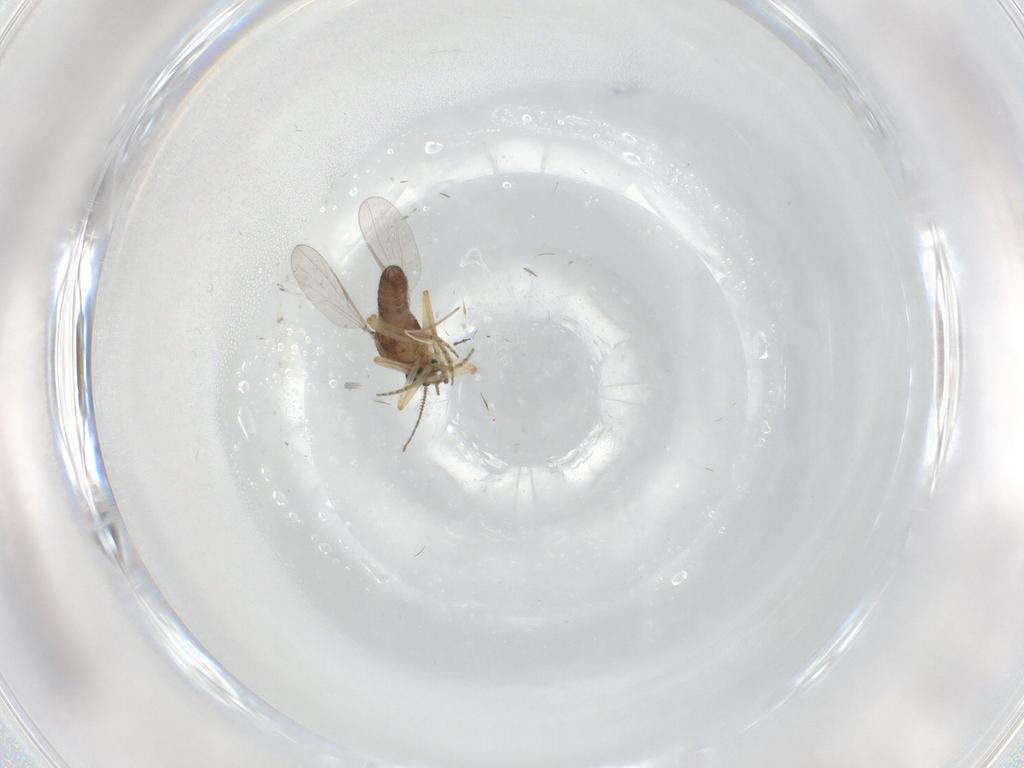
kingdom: Animalia
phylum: Arthropoda
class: Insecta
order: Diptera
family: Ceratopogonidae
